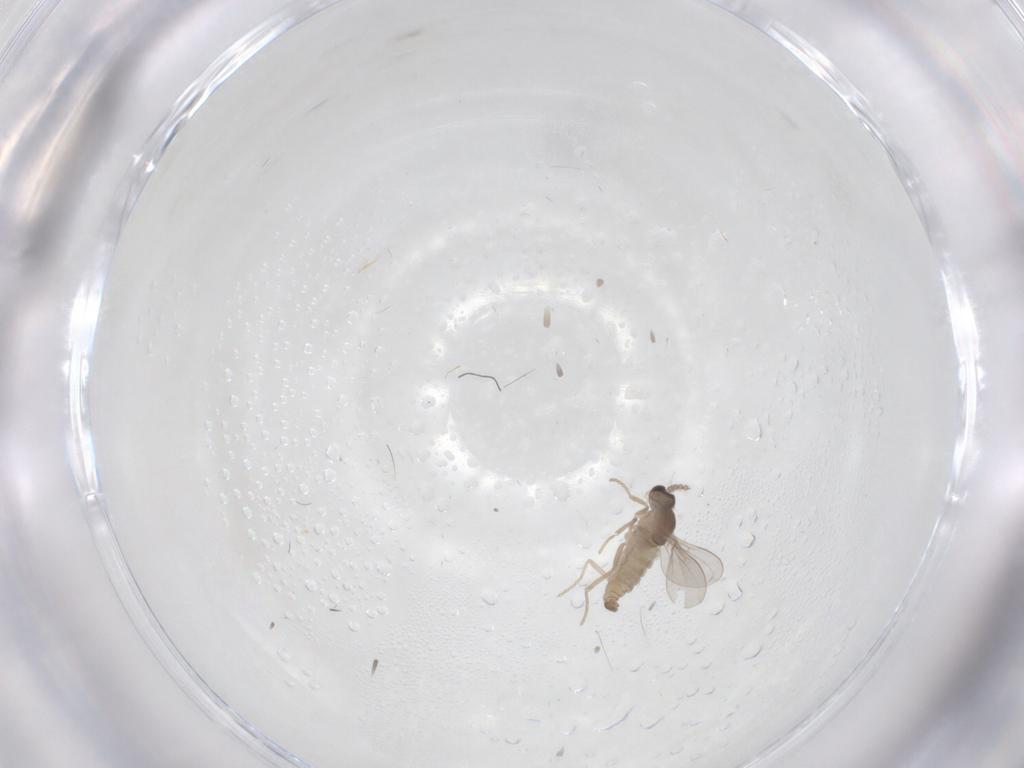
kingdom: Animalia
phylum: Arthropoda
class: Insecta
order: Diptera
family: Cecidomyiidae
